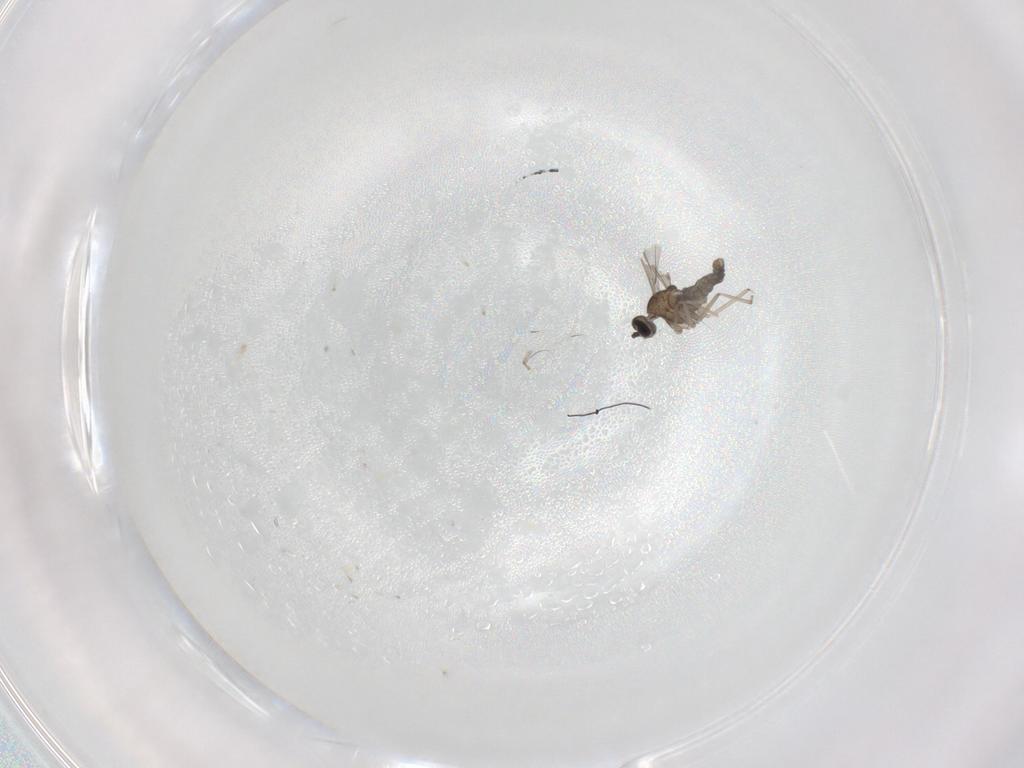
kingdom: Animalia
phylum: Arthropoda
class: Insecta
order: Diptera
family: Cecidomyiidae
